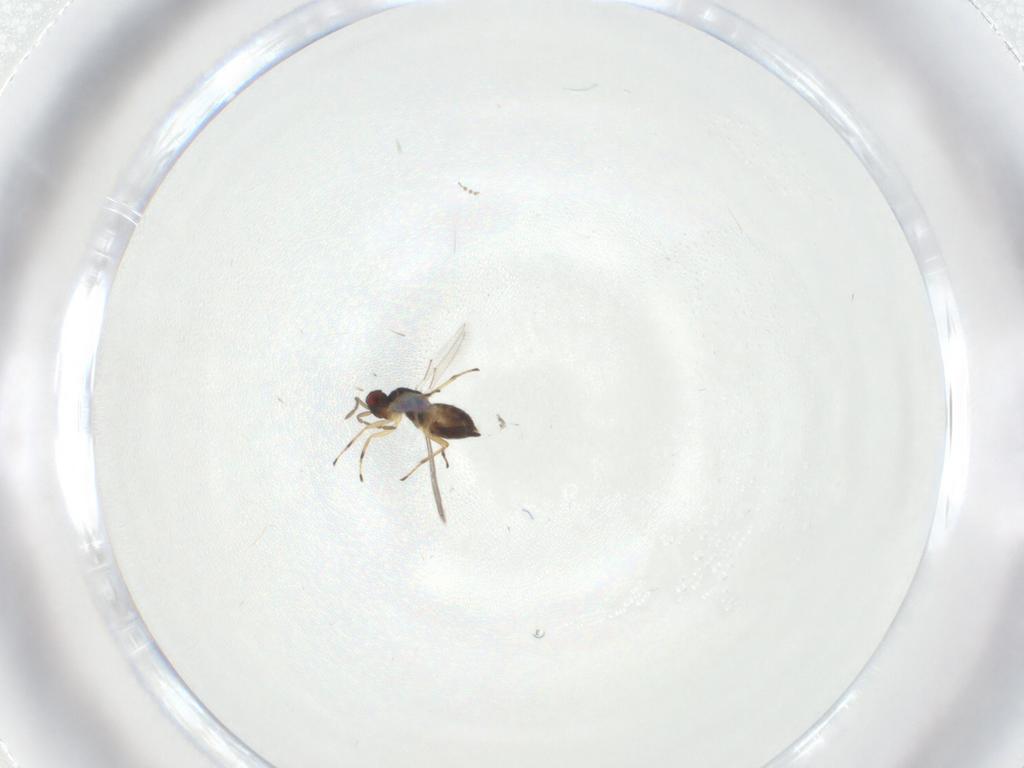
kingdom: Animalia
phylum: Arthropoda
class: Insecta
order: Hymenoptera
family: Eulophidae
